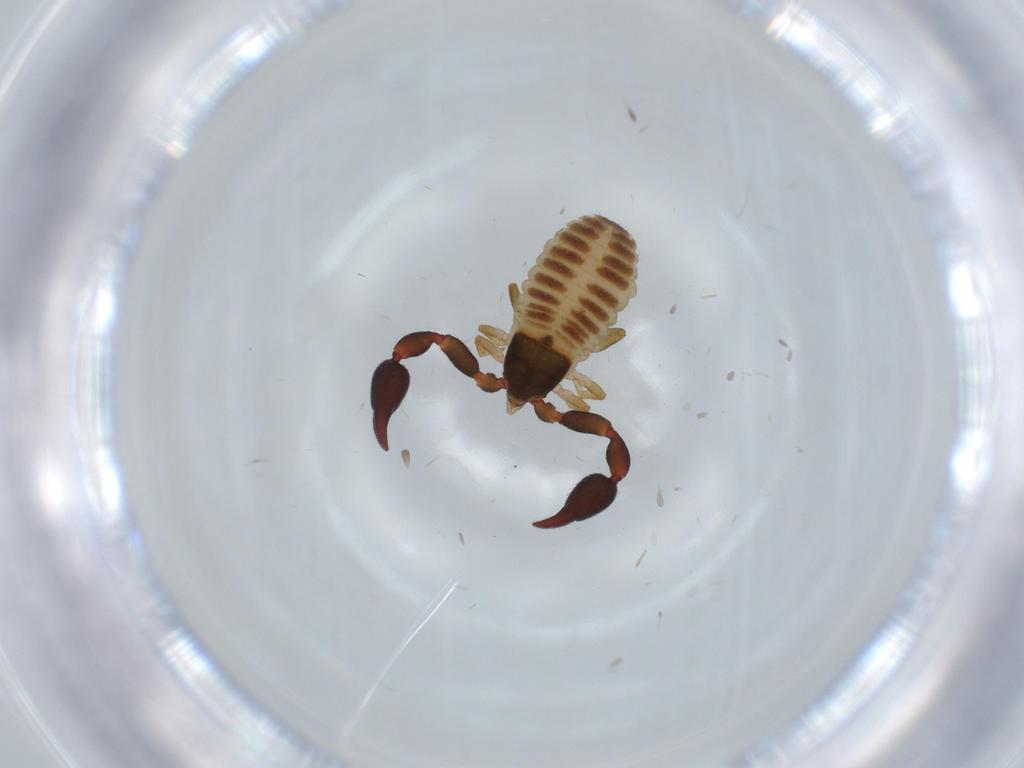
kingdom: Animalia
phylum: Arthropoda
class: Arachnida
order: Pseudoscorpiones
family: Chernetidae
